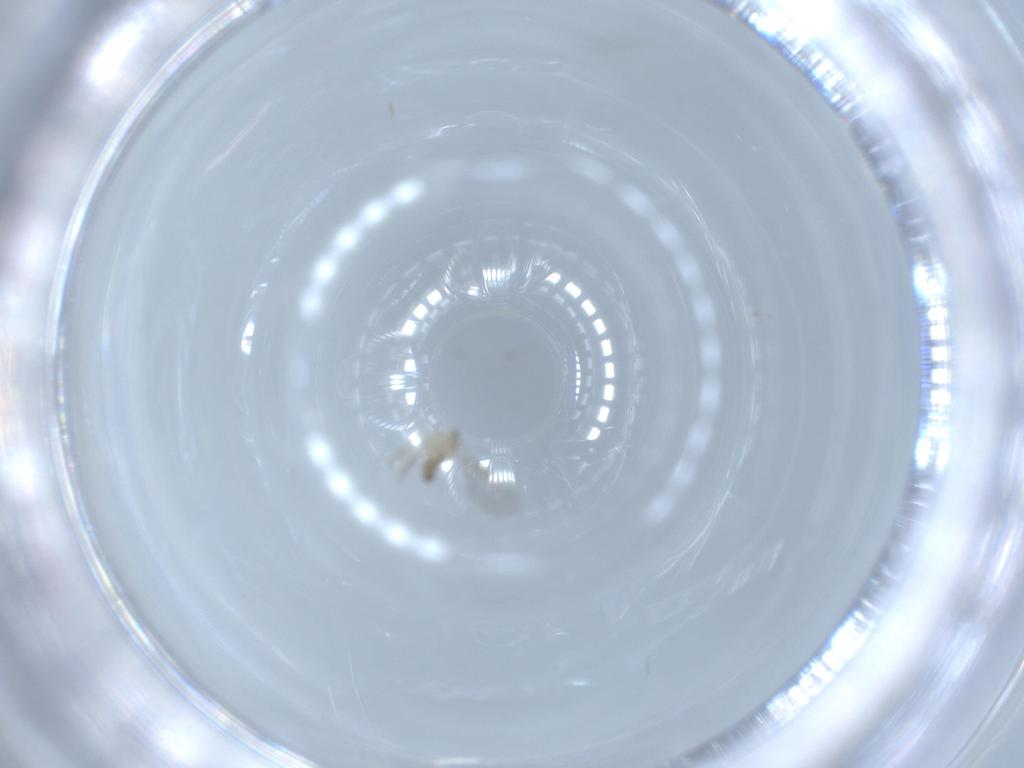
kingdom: Animalia
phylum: Arthropoda
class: Insecta
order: Diptera
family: Cecidomyiidae
